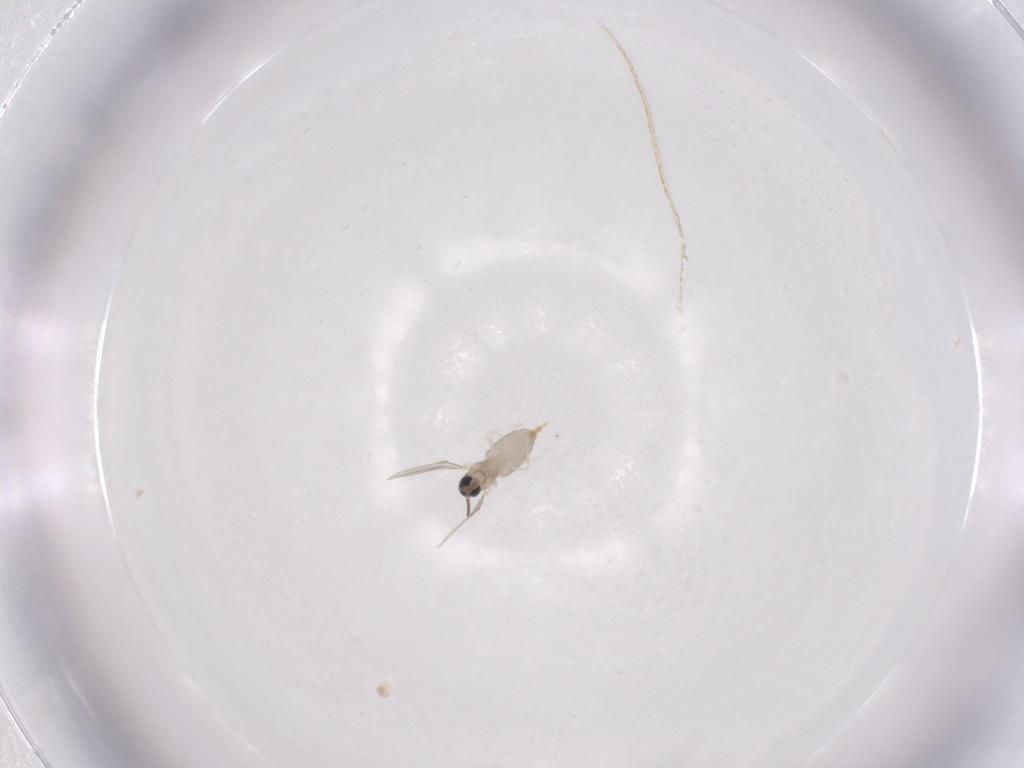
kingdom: Animalia
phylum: Arthropoda
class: Insecta
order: Diptera
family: Cecidomyiidae
